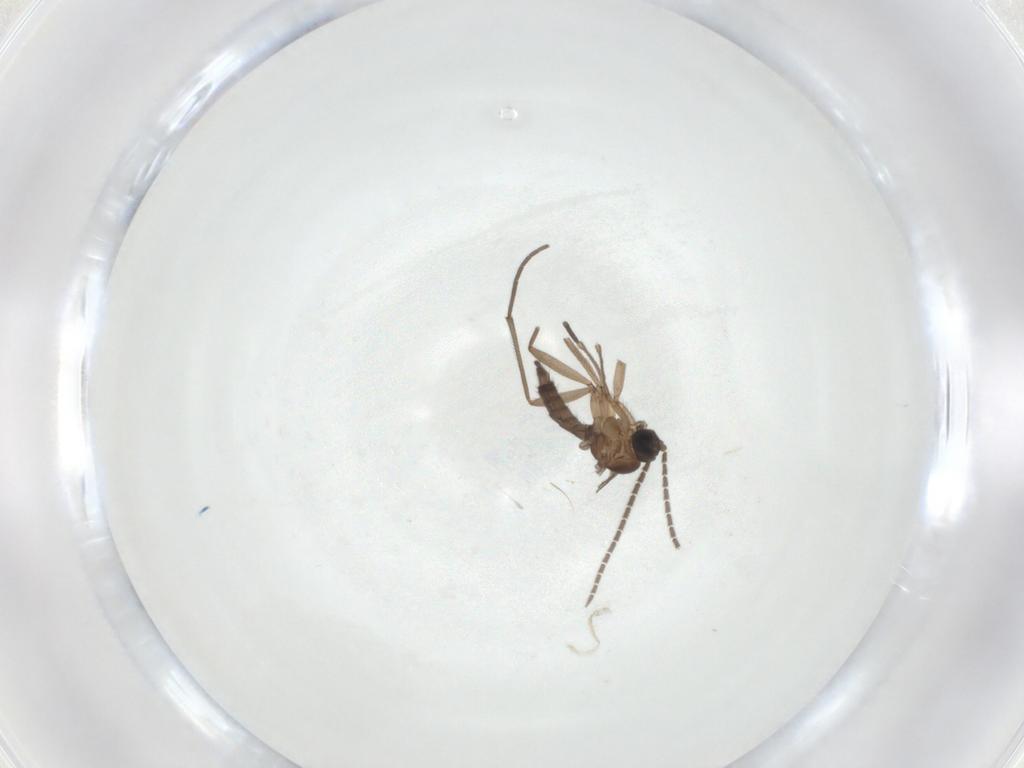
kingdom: Animalia
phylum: Arthropoda
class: Insecta
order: Diptera
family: Sciaridae
